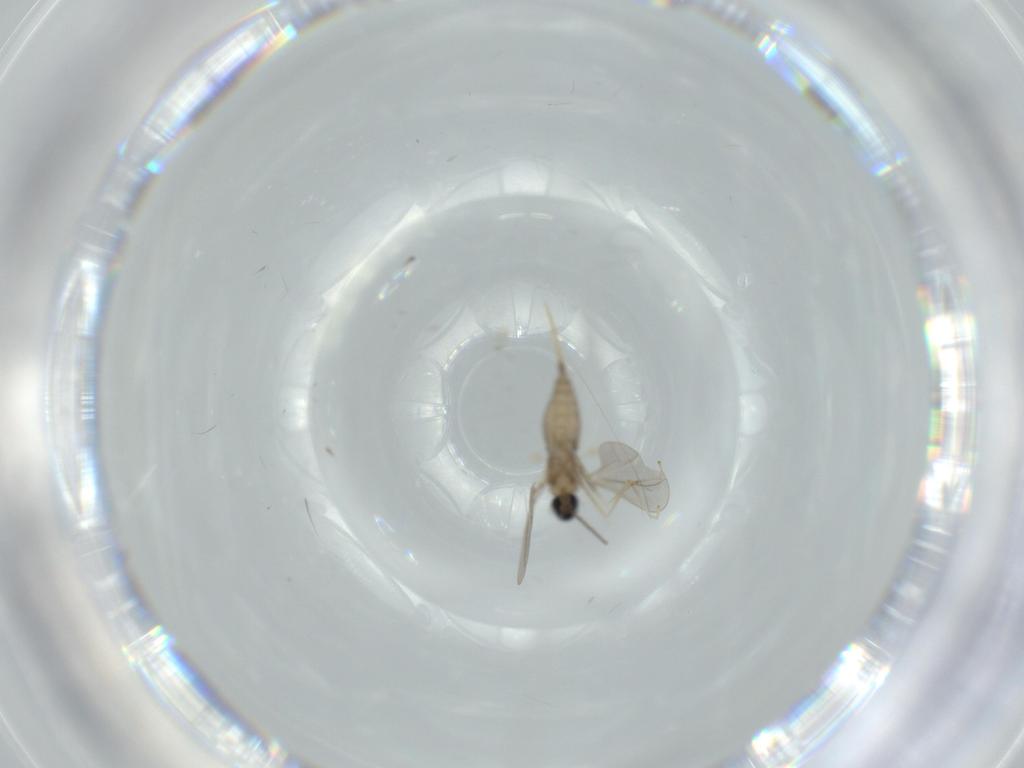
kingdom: Animalia
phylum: Arthropoda
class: Insecta
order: Diptera
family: Cecidomyiidae
